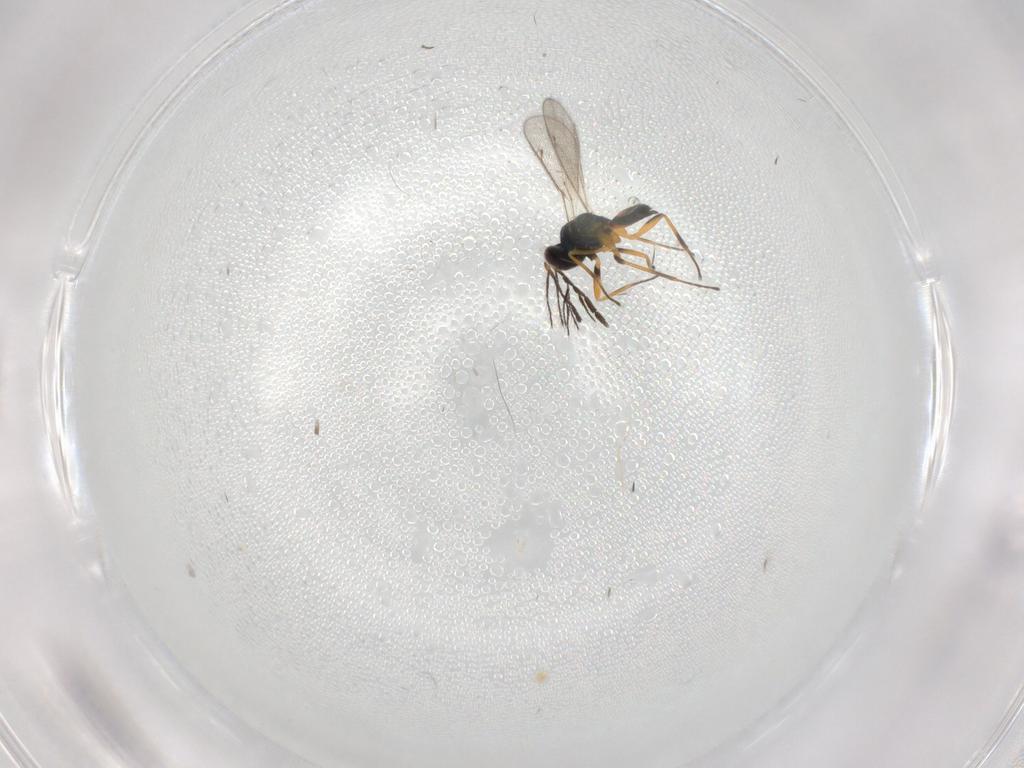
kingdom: Animalia
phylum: Arthropoda
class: Insecta
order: Hymenoptera
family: Eulophidae
